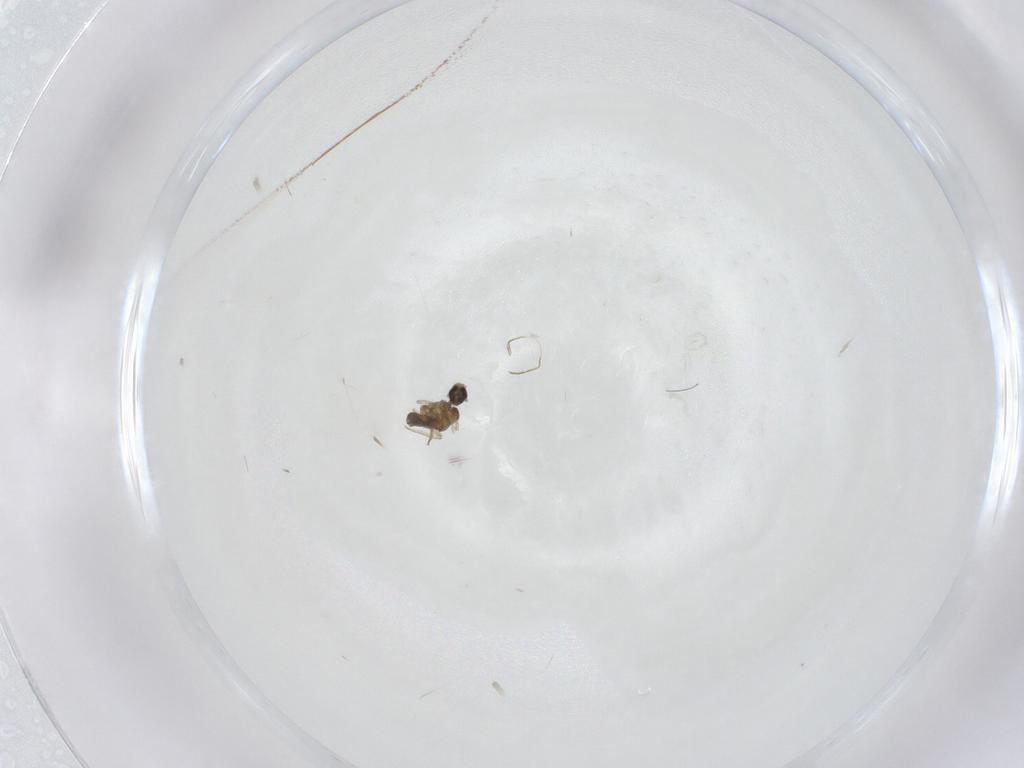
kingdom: Animalia
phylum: Arthropoda
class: Insecta
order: Diptera
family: Cecidomyiidae
